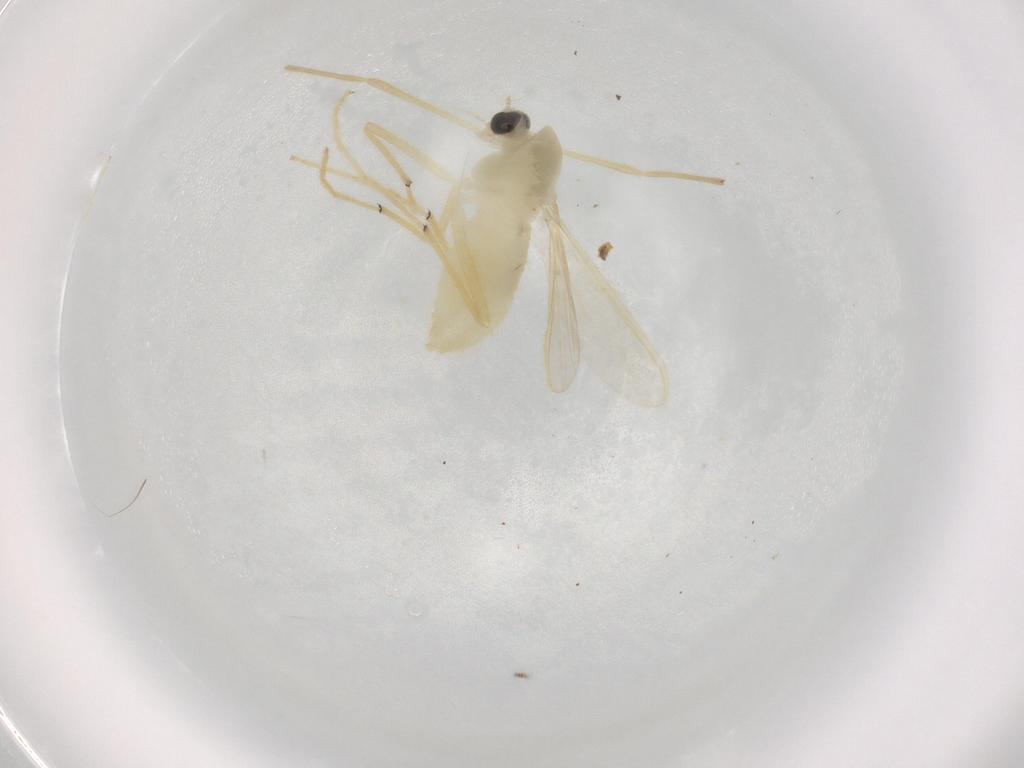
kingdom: Animalia
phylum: Arthropoda
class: Insecta
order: Diptera
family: Chironomidae
